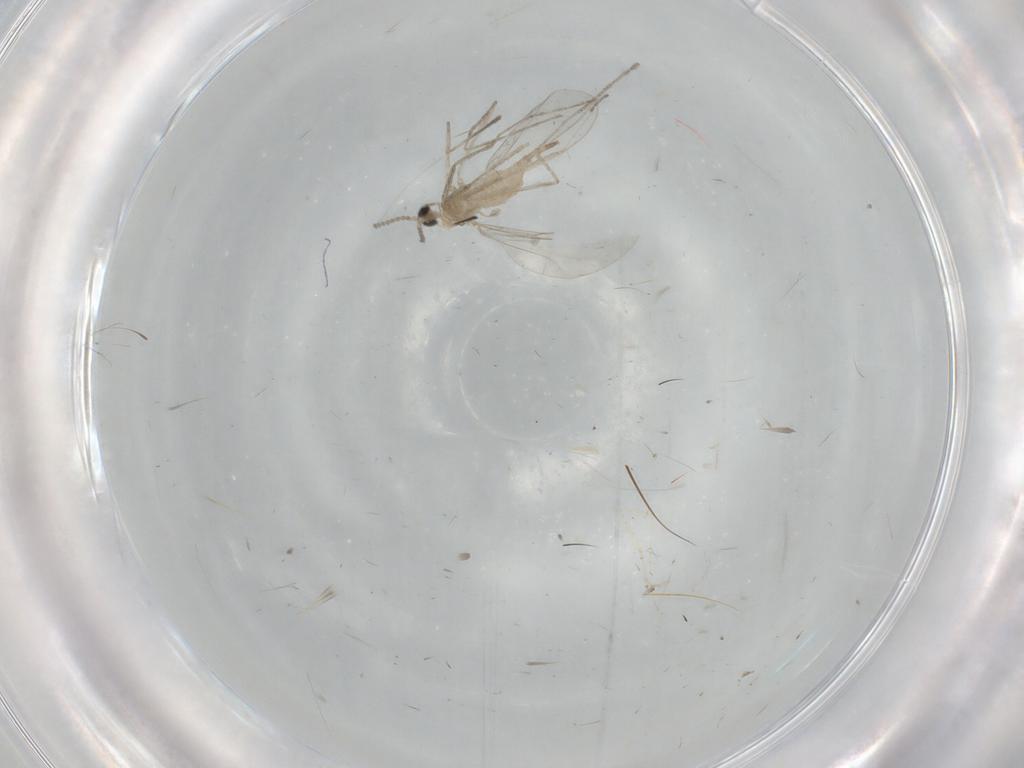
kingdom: Animalia
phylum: Arthropoda
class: Insecta
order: Diptera
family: Cecidomyiidae
